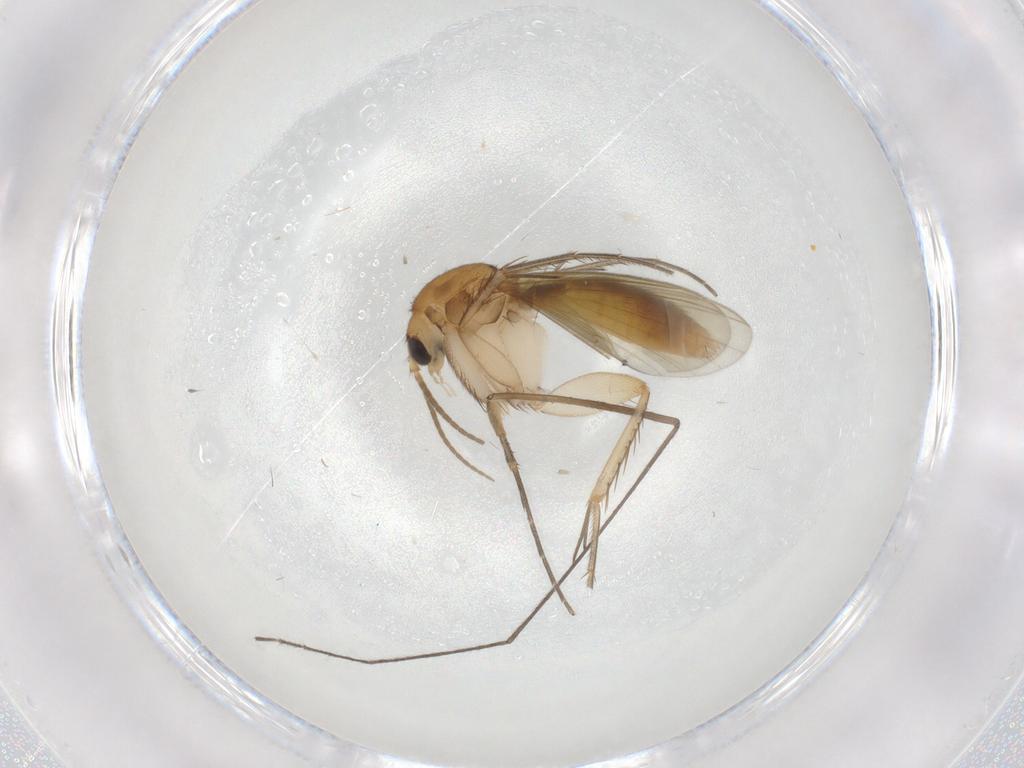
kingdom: Animalia
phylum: Arthropoda
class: Insecta
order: Diptera
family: Mycetophilidae
